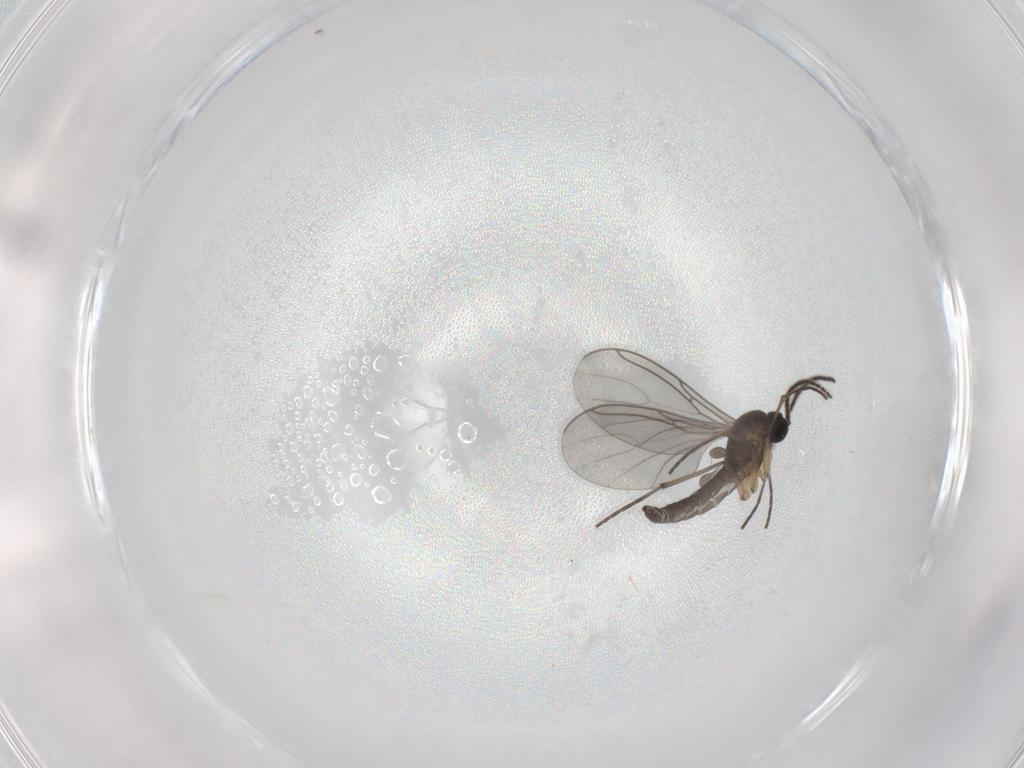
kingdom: Animalia
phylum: Arthropoda
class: Insecta
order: Diptera
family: Sciaridae
